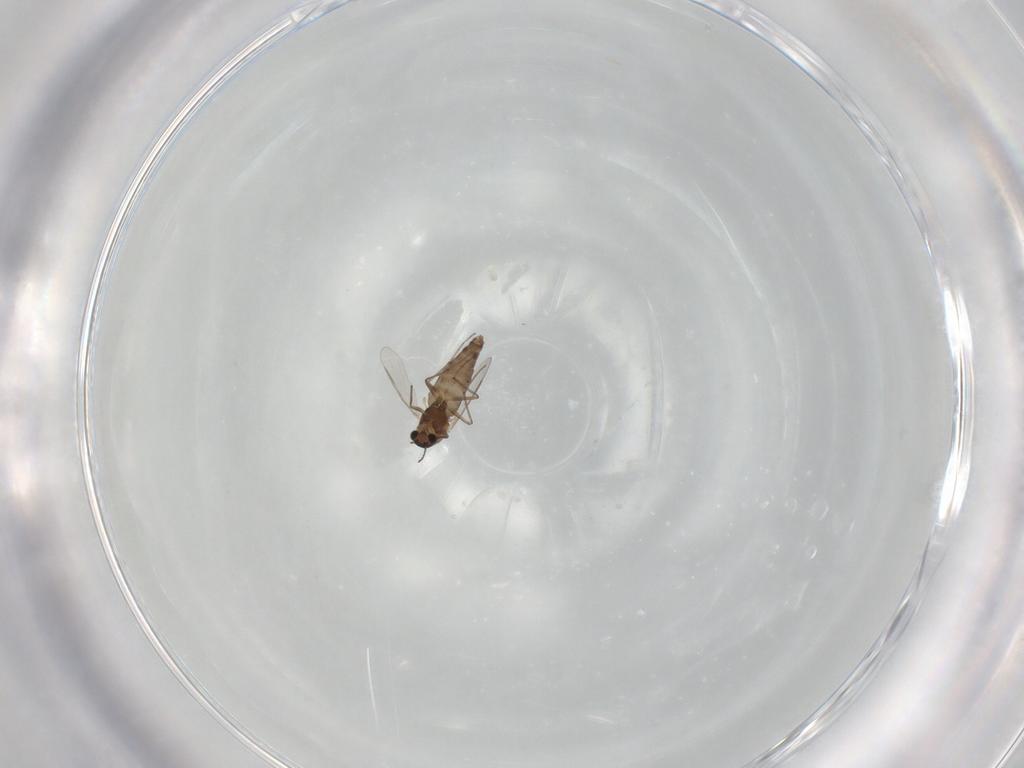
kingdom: Animalia
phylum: Arthropoda
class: Insecta
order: Diptera
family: Chironomidae
